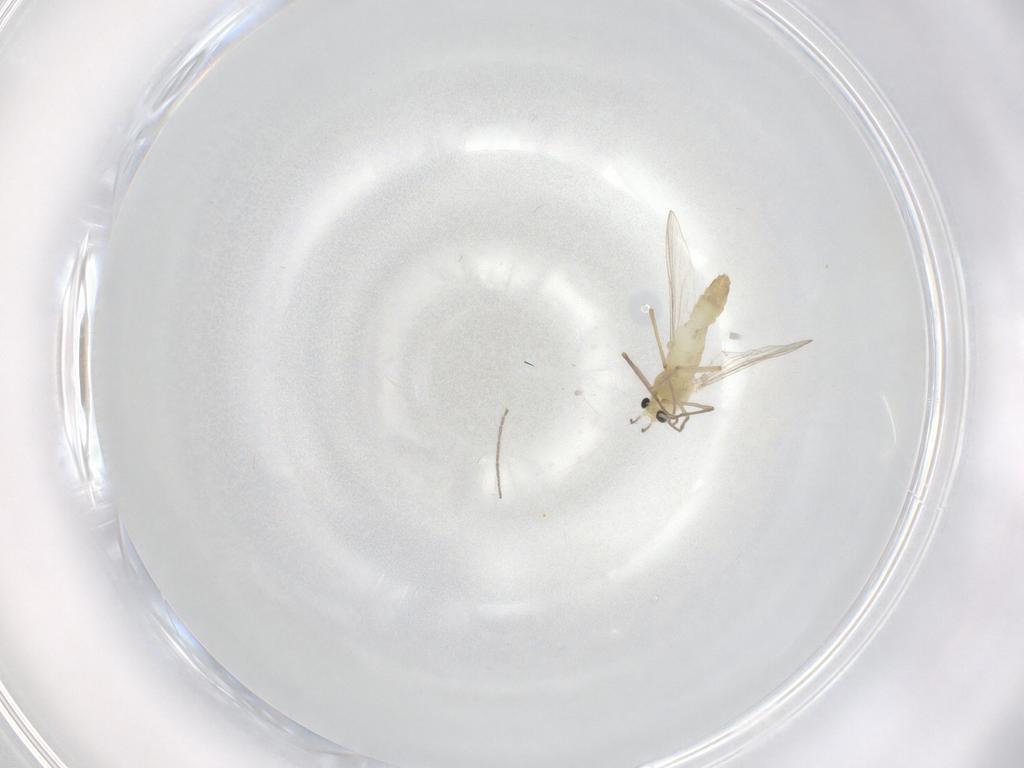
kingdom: Animalia
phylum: Arthropoda
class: Insecta
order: Diptera
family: Chironomidae
